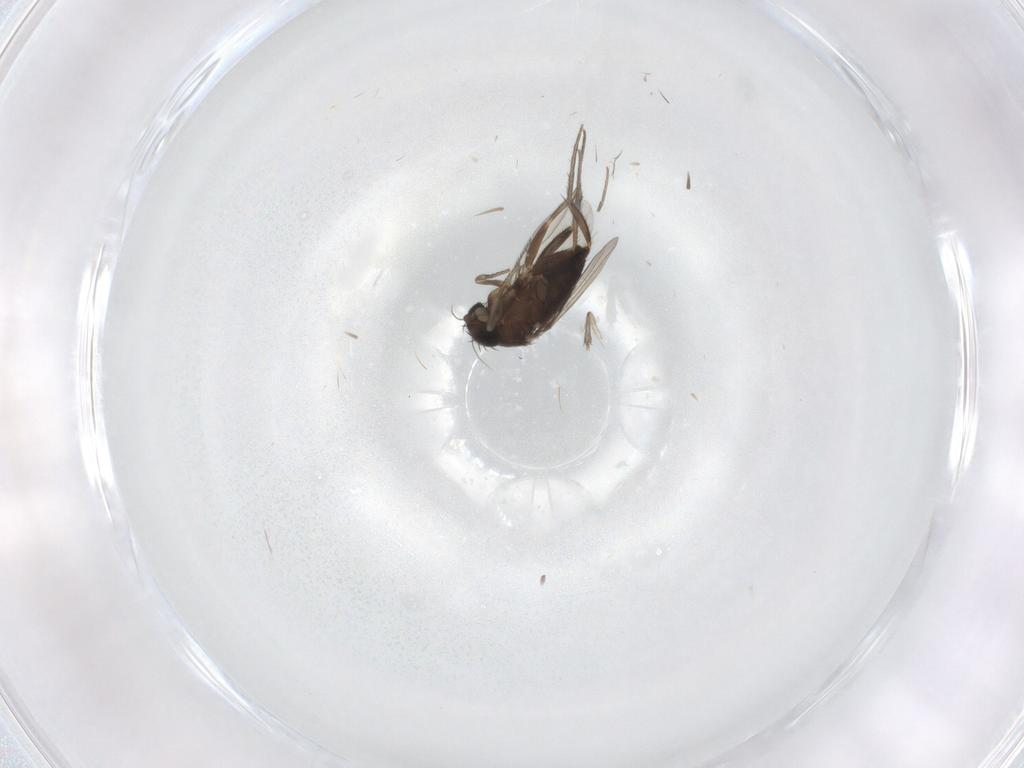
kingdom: Animalia
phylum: Arthropoda
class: Insecta
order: Diptera
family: Phoridae
